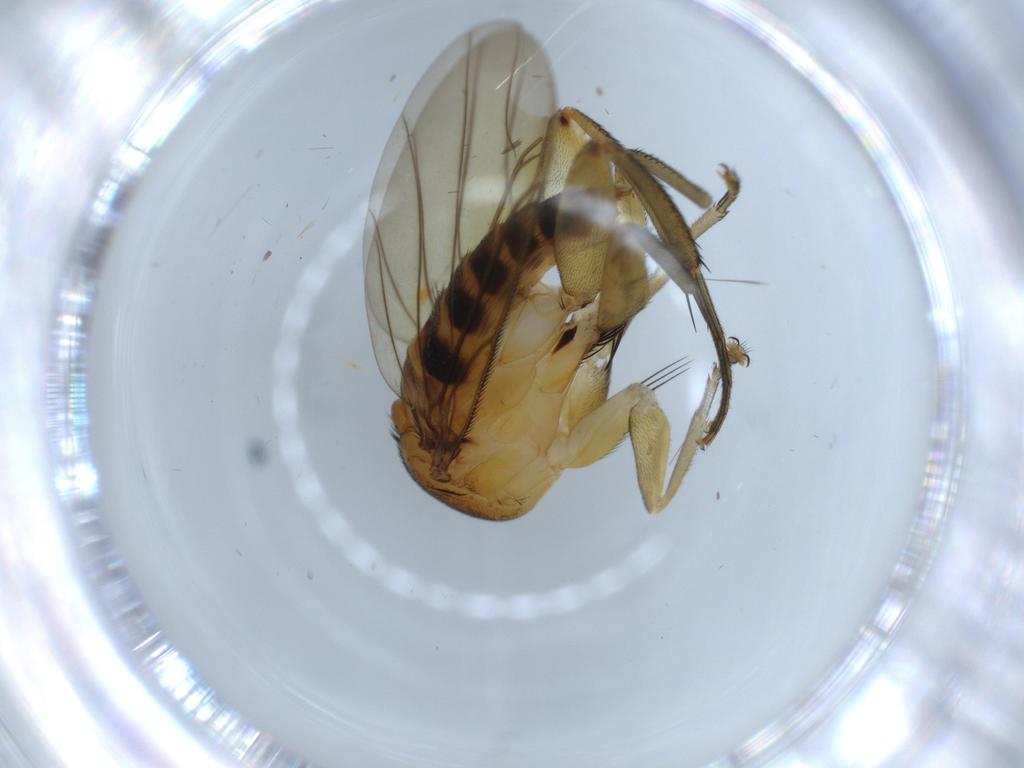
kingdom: Animalia
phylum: Arthropoda
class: Insecta
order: Diptera
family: Phoridae
